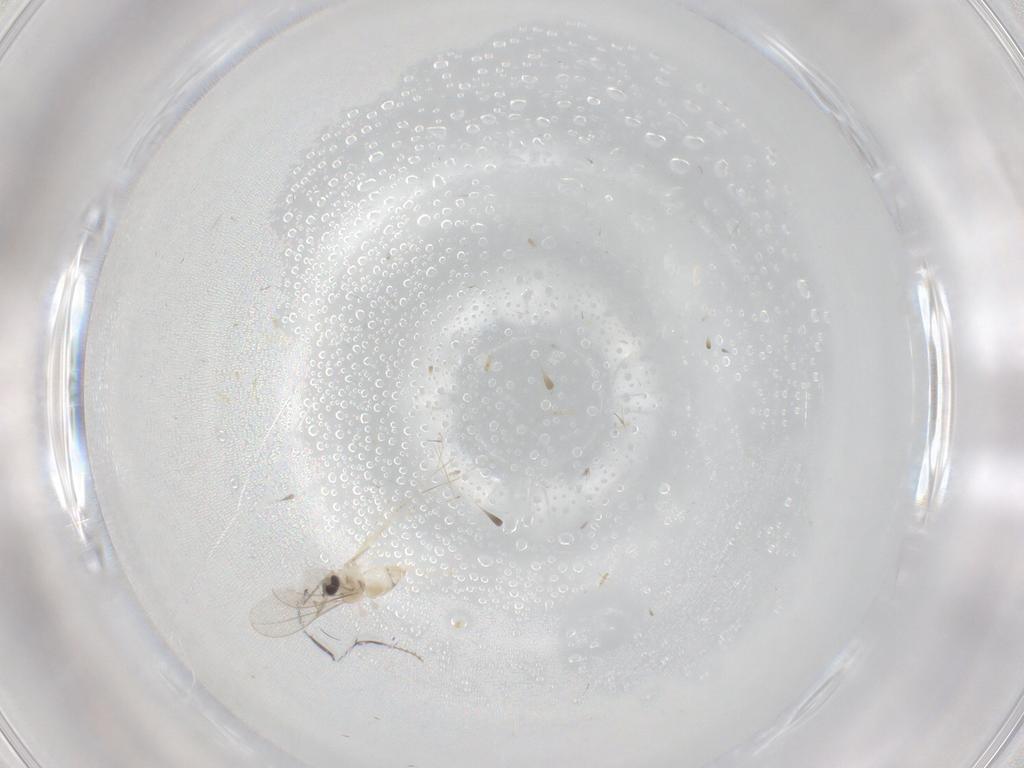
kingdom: Animalia
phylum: Arthropoda
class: Insecta
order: Diptera
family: Cecidomyiidae
